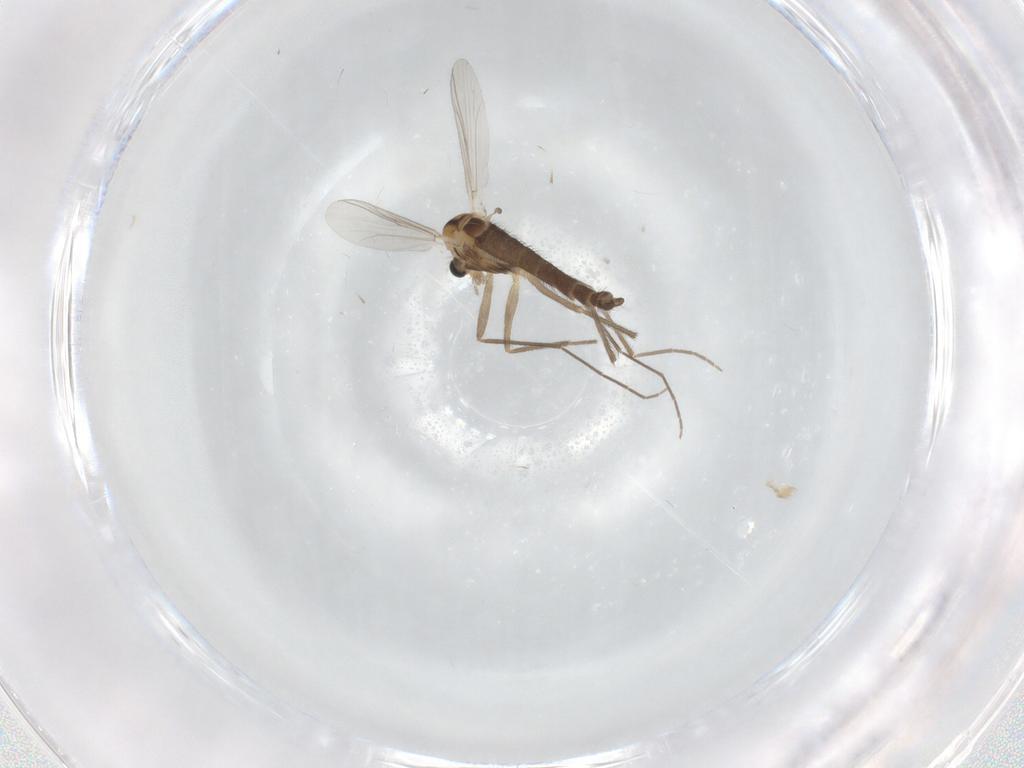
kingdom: Animalia
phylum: Arthropoda
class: Insecta
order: Diptera
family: Chironomidae
